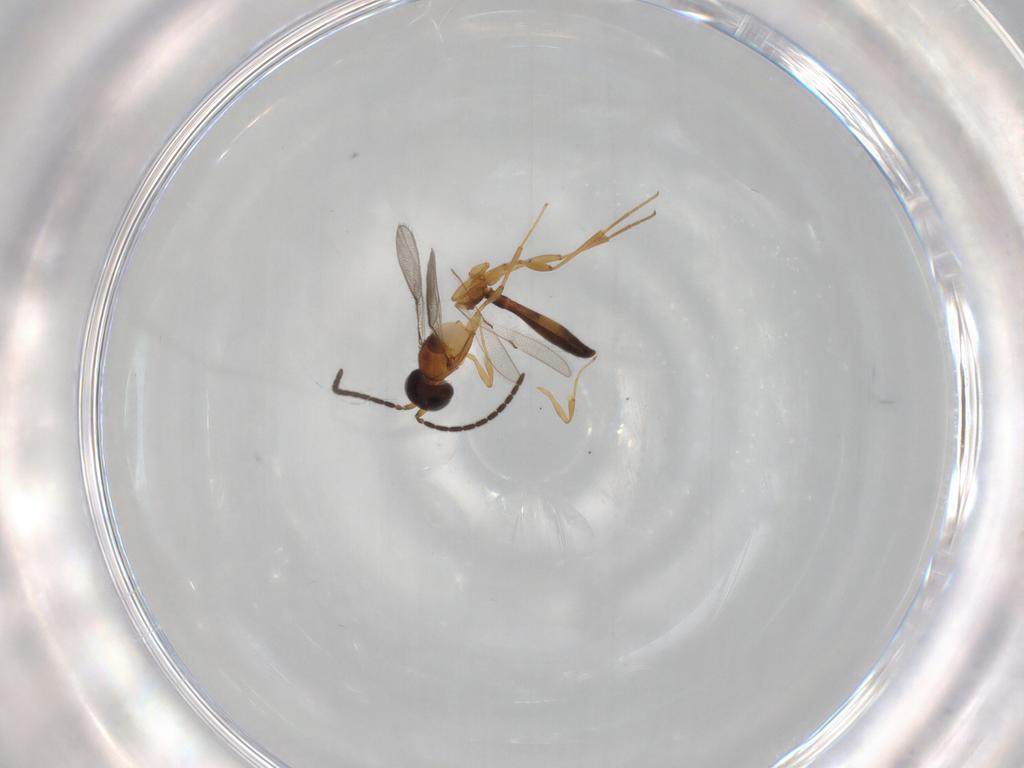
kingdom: Animalia
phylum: Arthropoda
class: Insecta
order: Hymenoptera
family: Scelionidae
